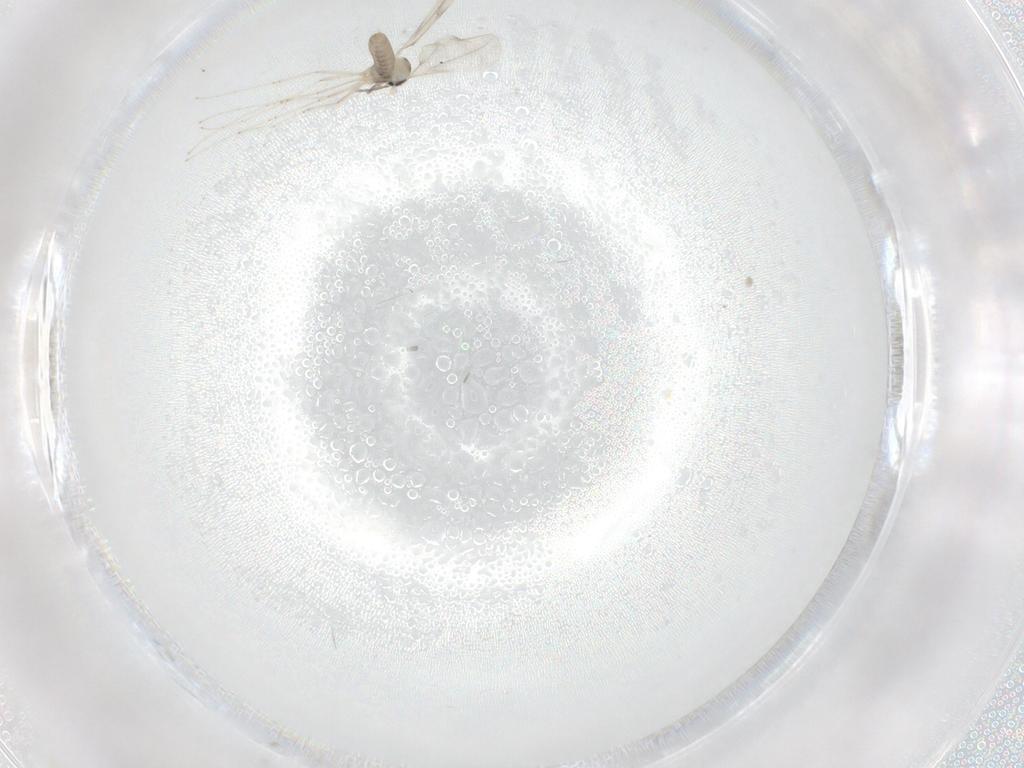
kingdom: Animalia
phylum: Arthropoda
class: Insecta
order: Diptera
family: Cecidomyiidae
